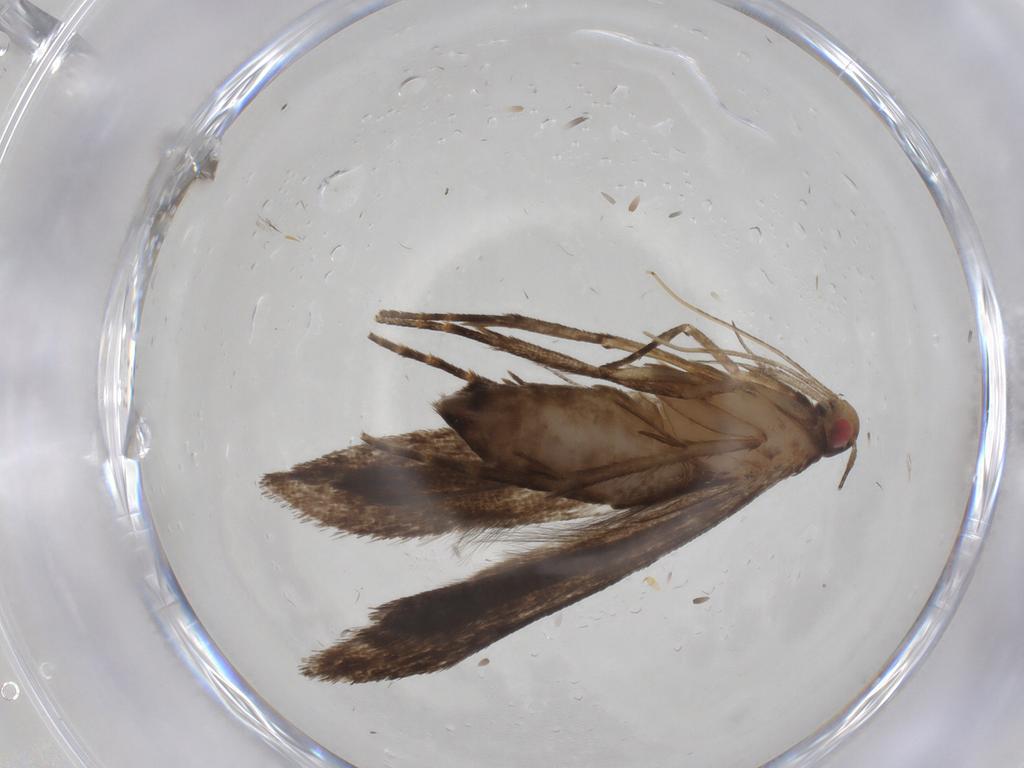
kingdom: Animalia
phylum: Arthropoda
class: Insecta
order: Lepidoptera
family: Gelechiidae
